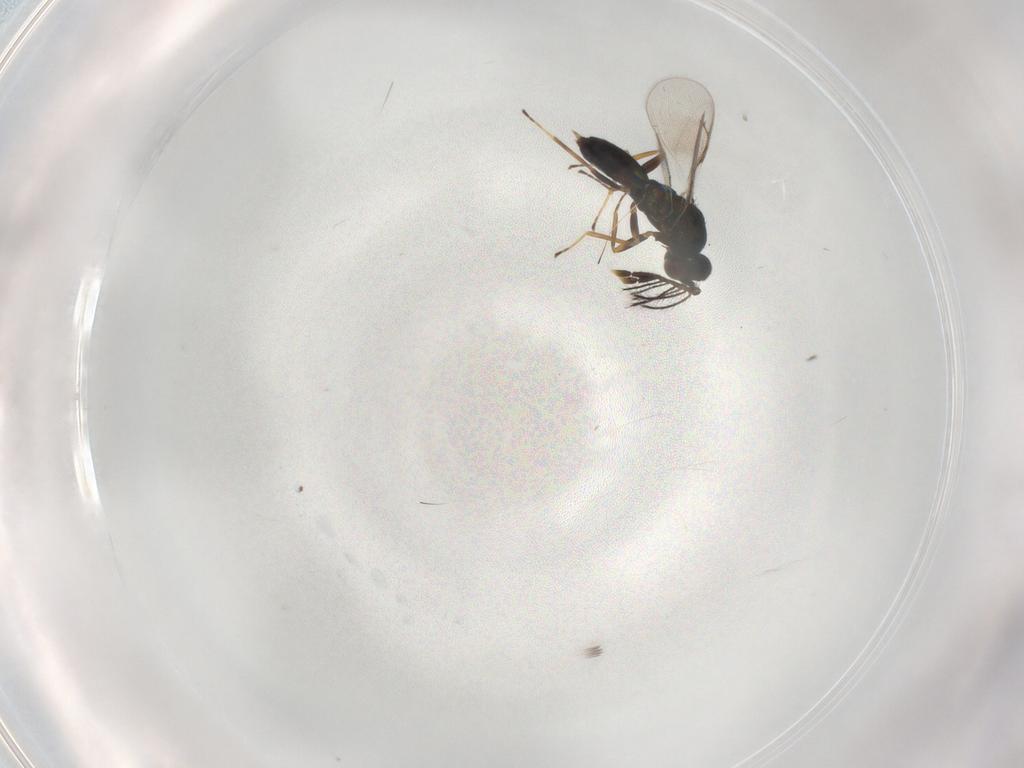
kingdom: Animalia
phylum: Arthropoda
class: Insecta
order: Hymenoptera
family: Eulophidae
